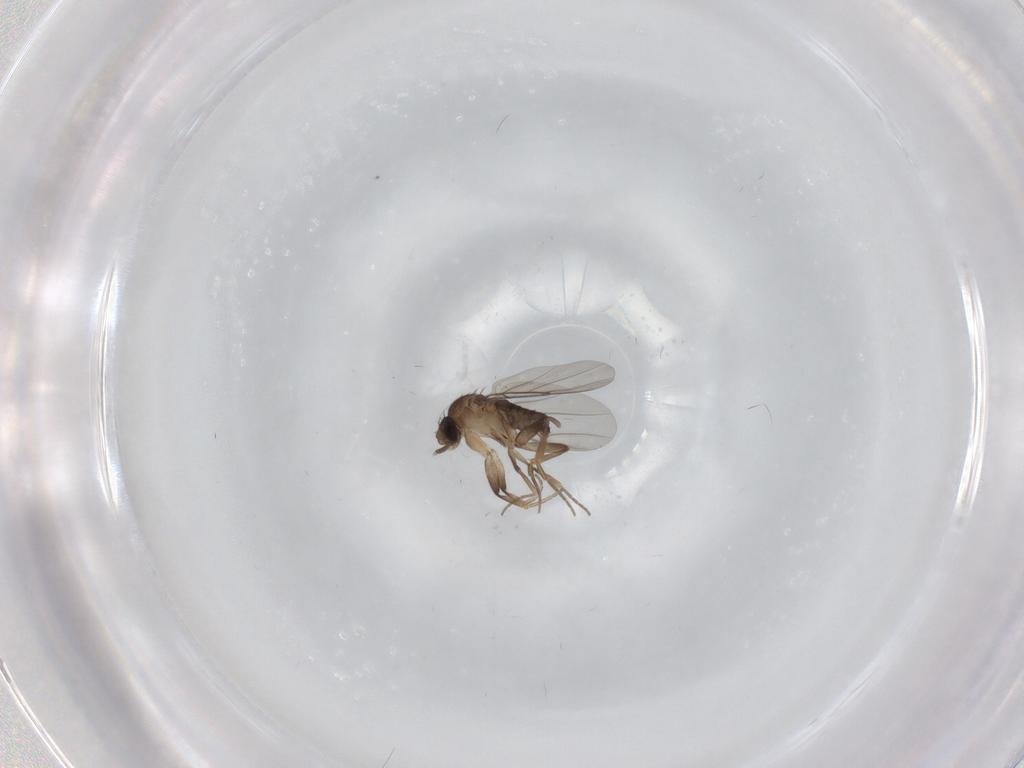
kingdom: Animalia
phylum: Arthropoda
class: Insecta
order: Diptera
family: Phoridae
